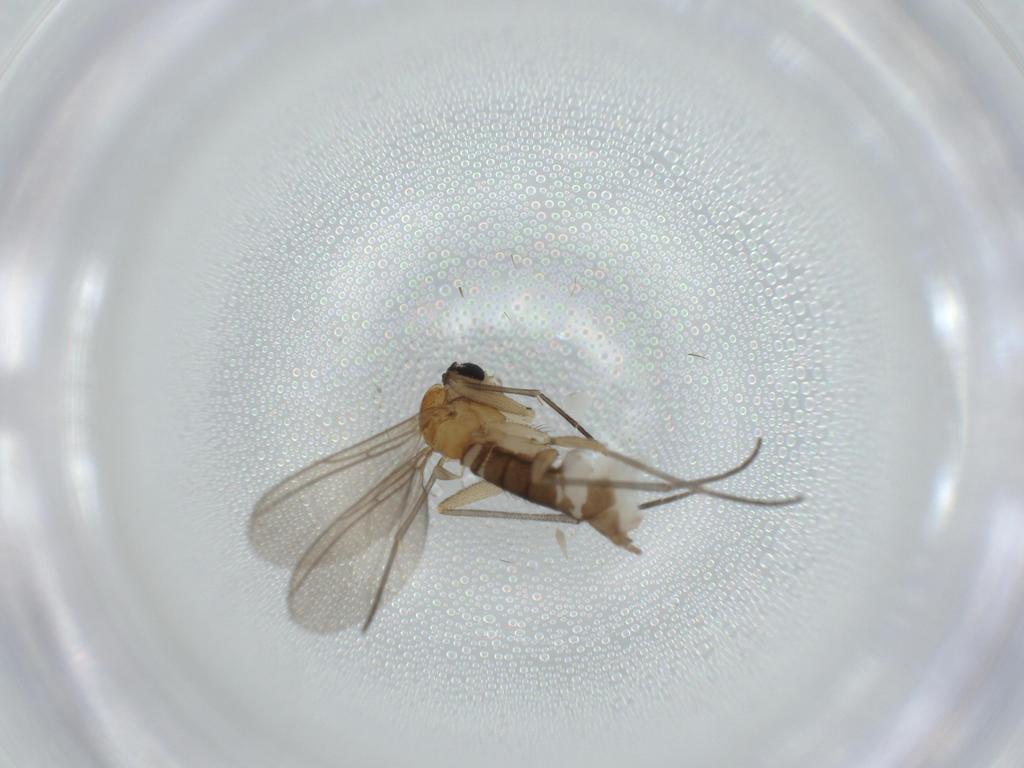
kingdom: Animalia
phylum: Arthropoda
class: Insecta
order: Diptera
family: Sciaridae
